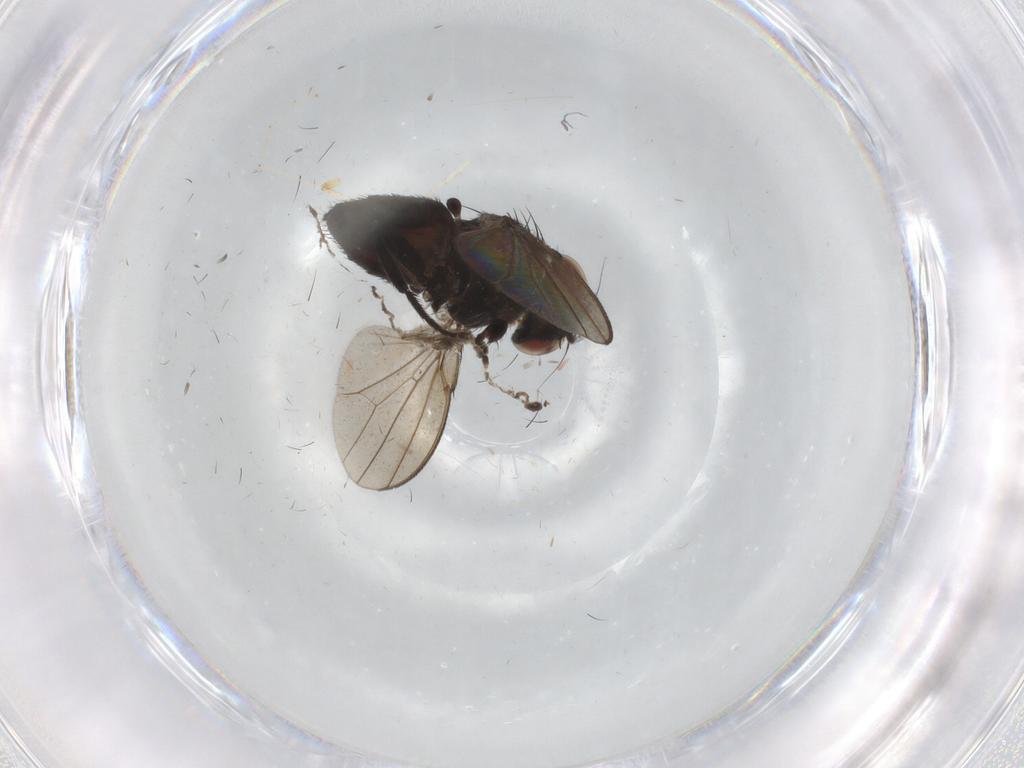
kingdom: Animalia
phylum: Arthropoda
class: Insecta
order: Diptera
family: Milichiidae
